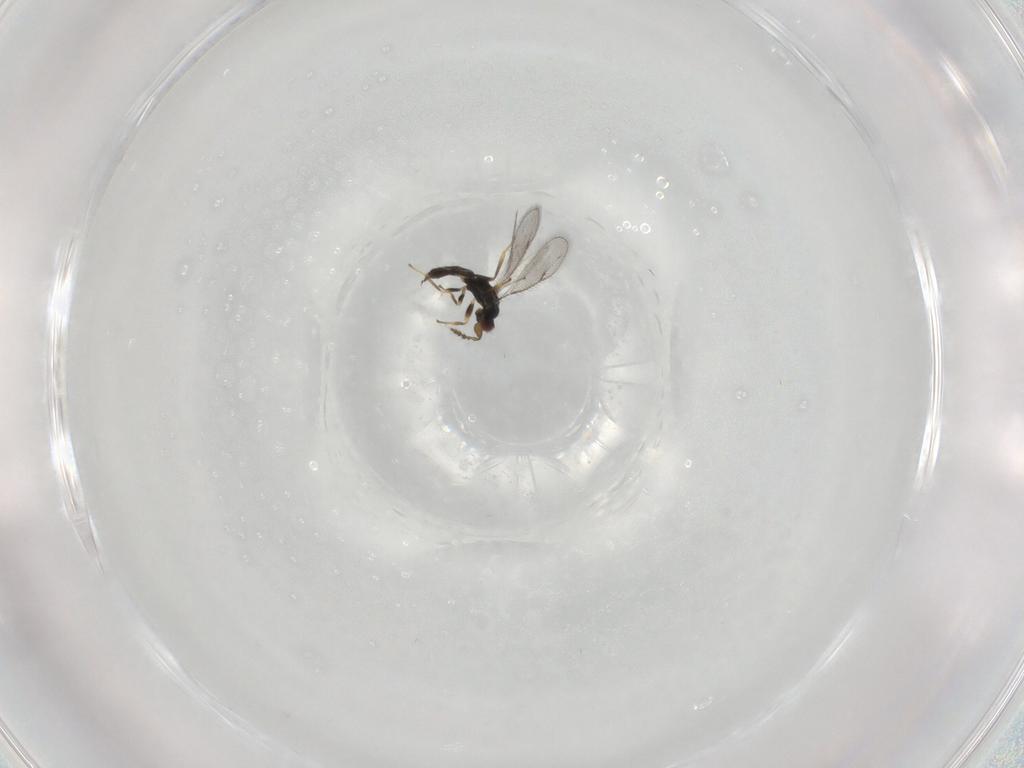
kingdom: Animalia
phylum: Arthropoda
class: Insecta
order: Hymenoptera
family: Eulophidae
